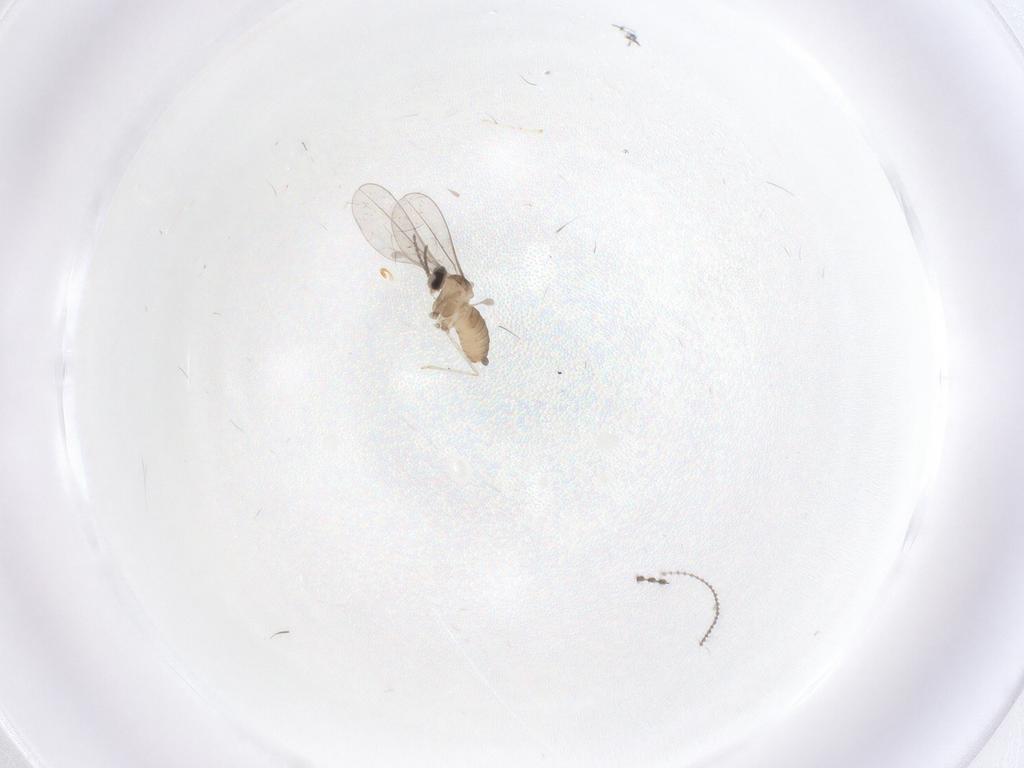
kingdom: Animalia
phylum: Arthropoda
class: Insecta
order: Diptera
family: Cecidomyiidae
